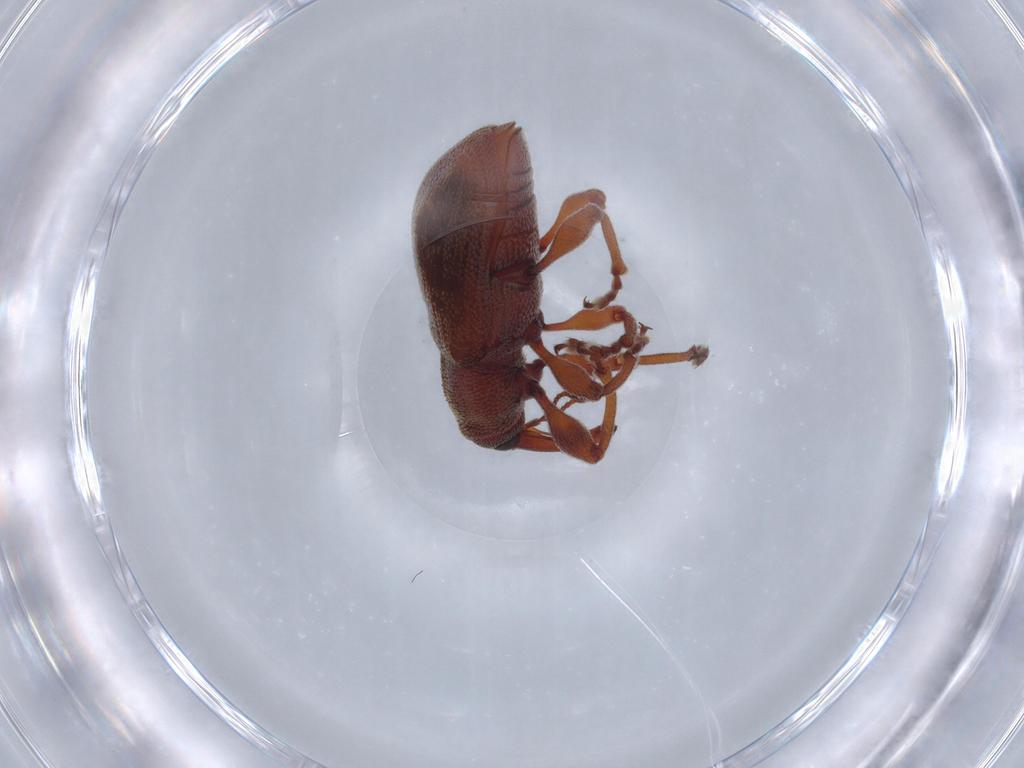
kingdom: Animalia
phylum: Arthropoda
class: Insecta
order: Coleoptera
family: Curculionidae
